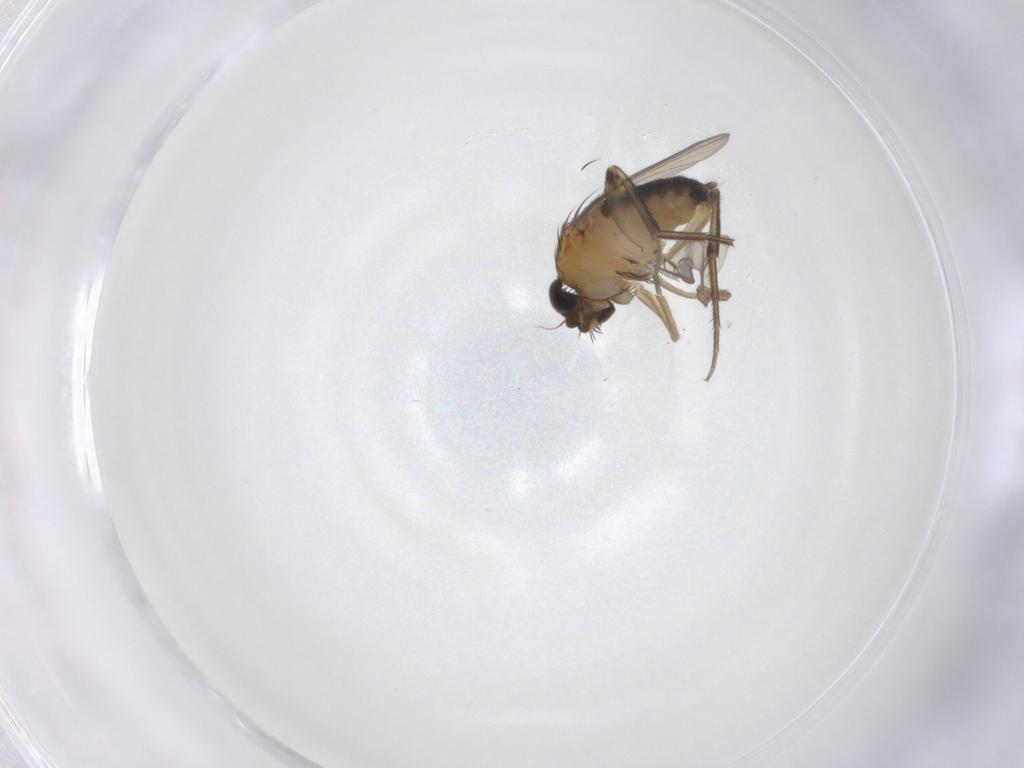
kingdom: Animalia
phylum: Arthropoda
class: Insecta
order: Diptera
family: Phoridae
